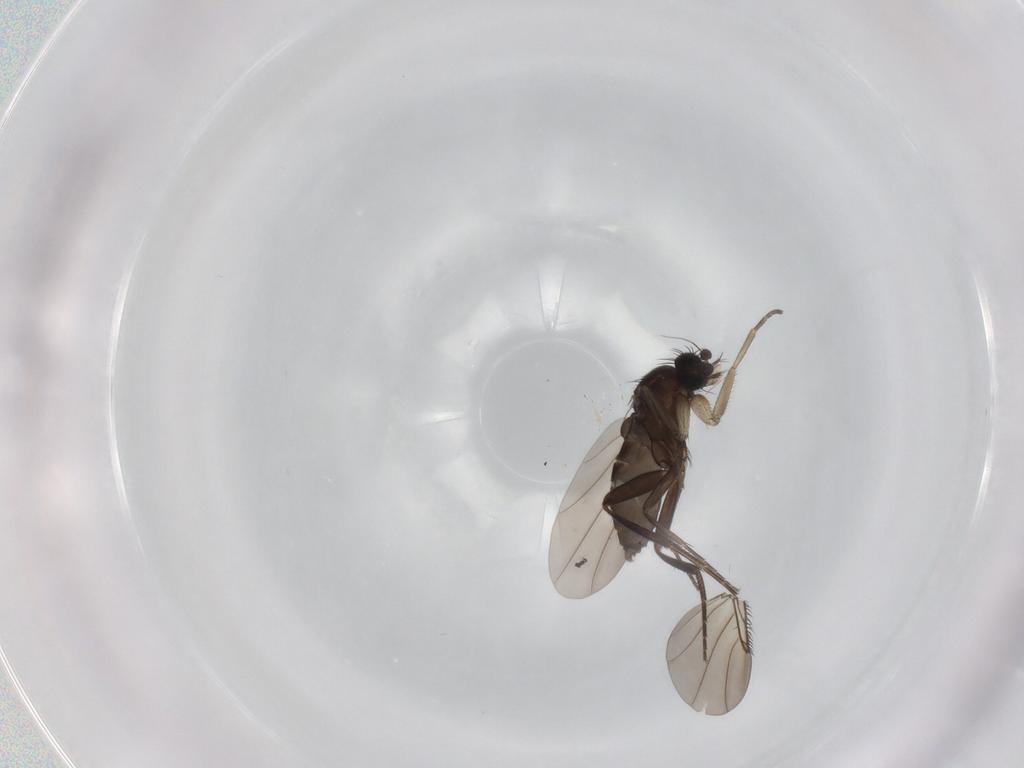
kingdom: Animalia
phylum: Arthropoda
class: Insecta
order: Diptera
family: Phoridae
